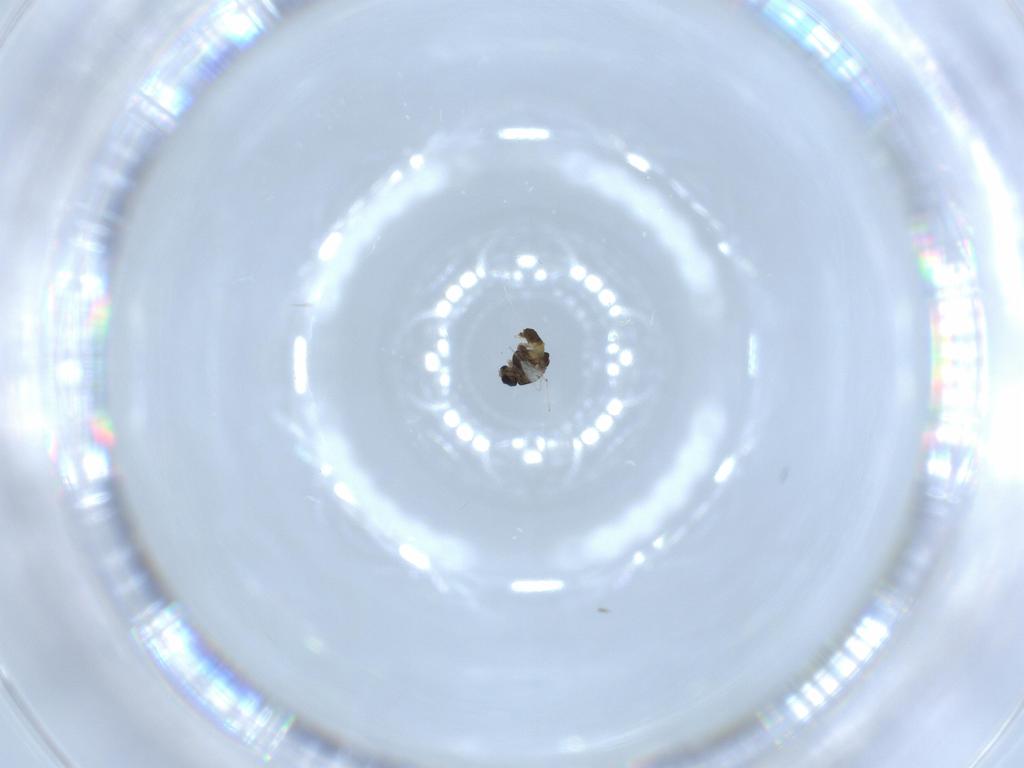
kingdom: Animalia
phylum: Arthropoda
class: Insecta
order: Diptera
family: Chironomidae
